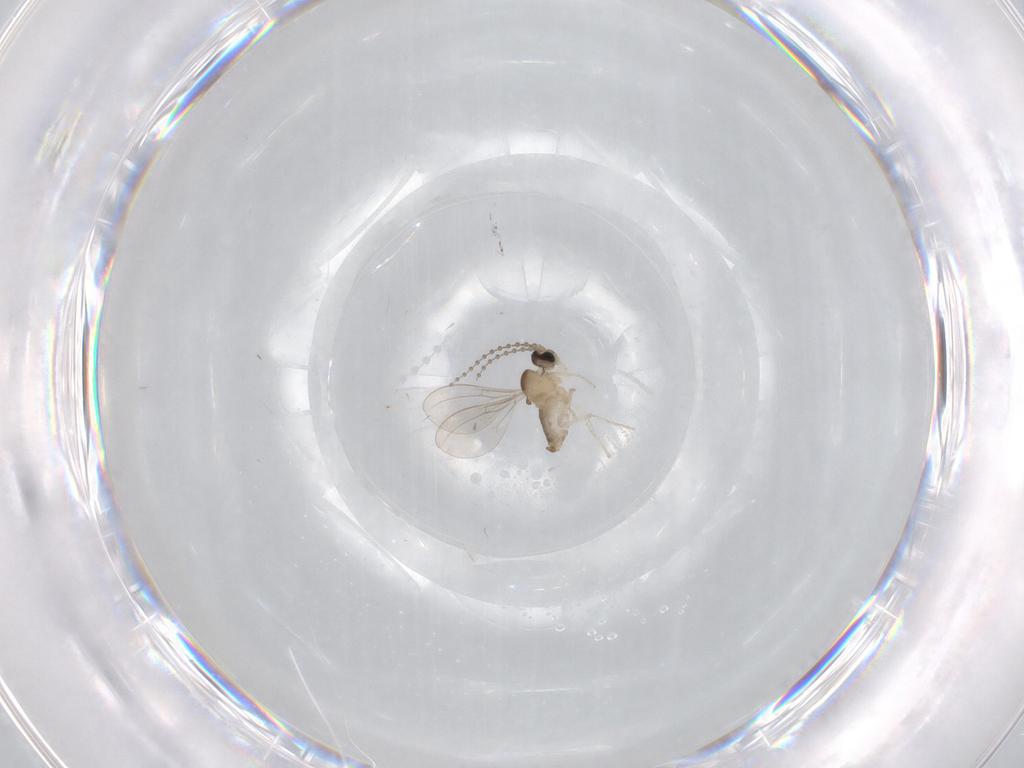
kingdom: Animalia
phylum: Arthropoda
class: Insecta
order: Diptera
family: Cecidomyiidae
